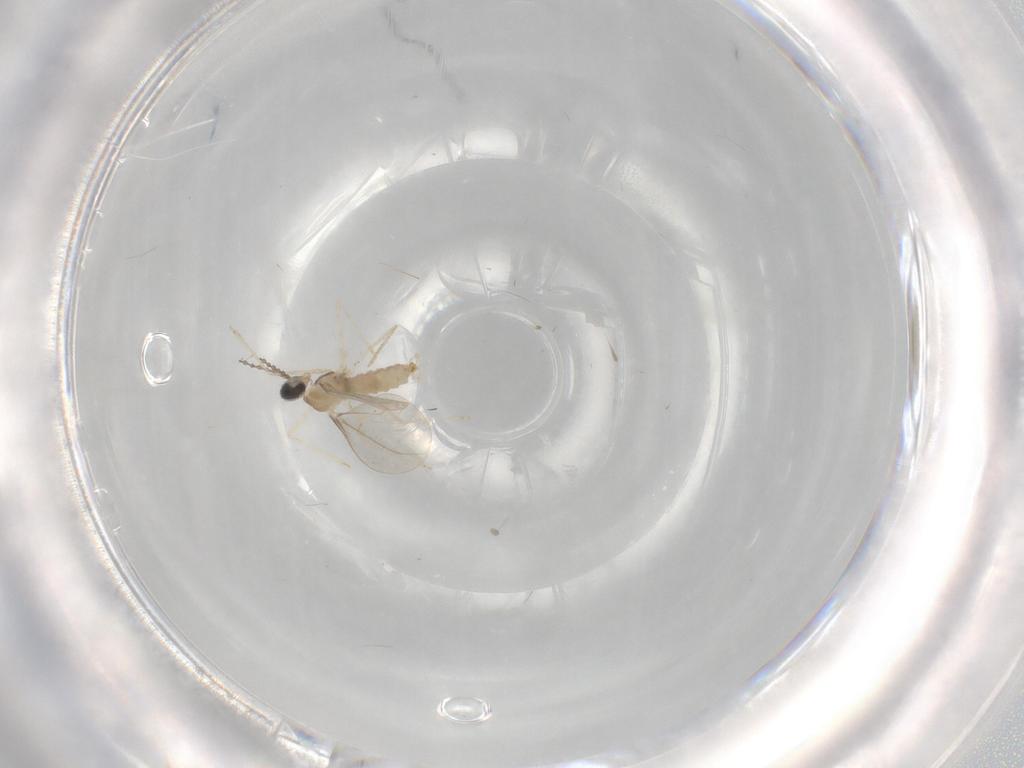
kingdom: Animalia
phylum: Arthropoda
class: Insecta
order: Diptera
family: Cecidomyiidae
